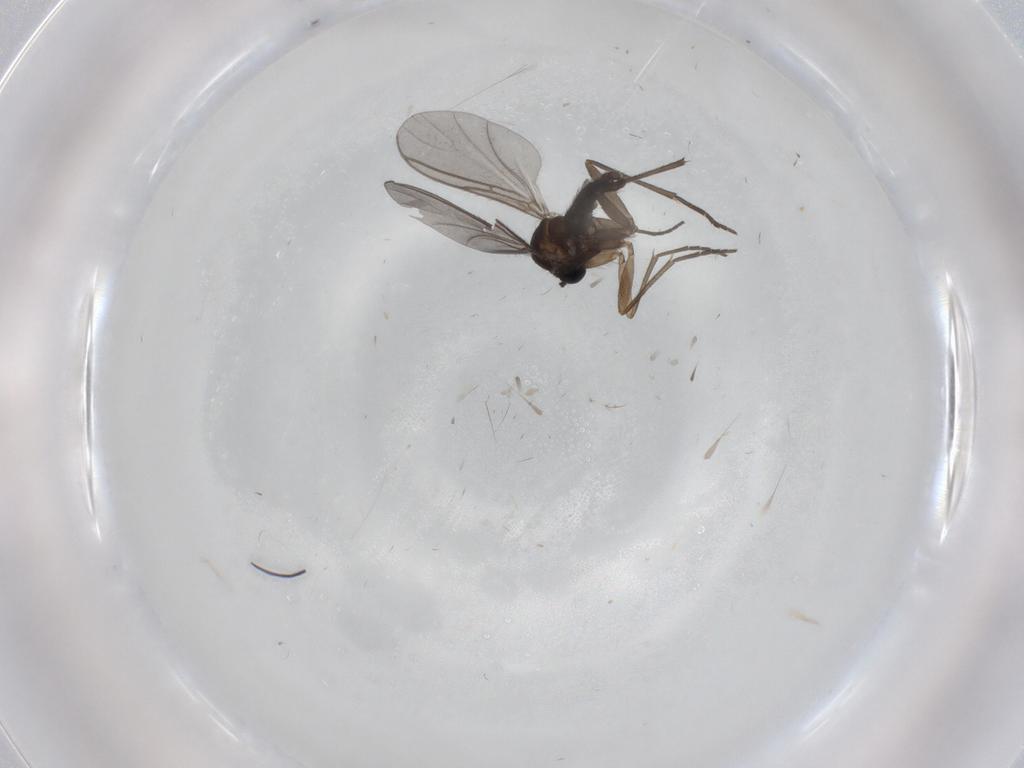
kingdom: Animalia
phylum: Arthropoda
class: Insecta
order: Diptera
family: Sciaridae
